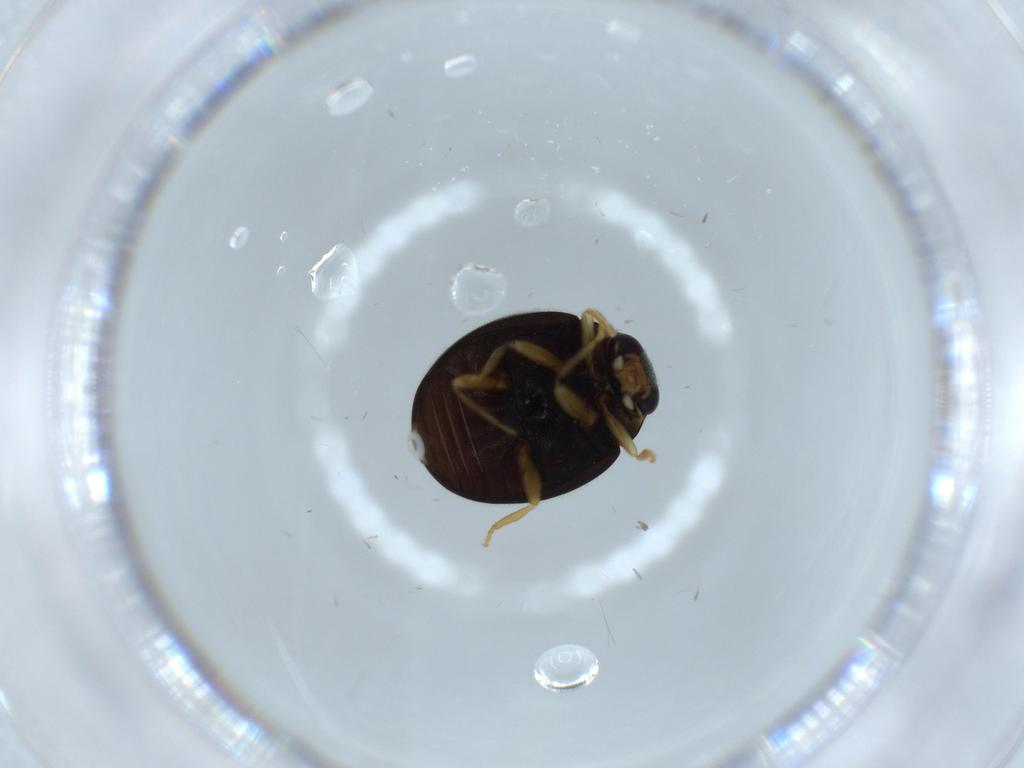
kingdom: Animalia
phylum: Arthropoda
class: Insecta
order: Coleoptera
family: Coccinellidae
